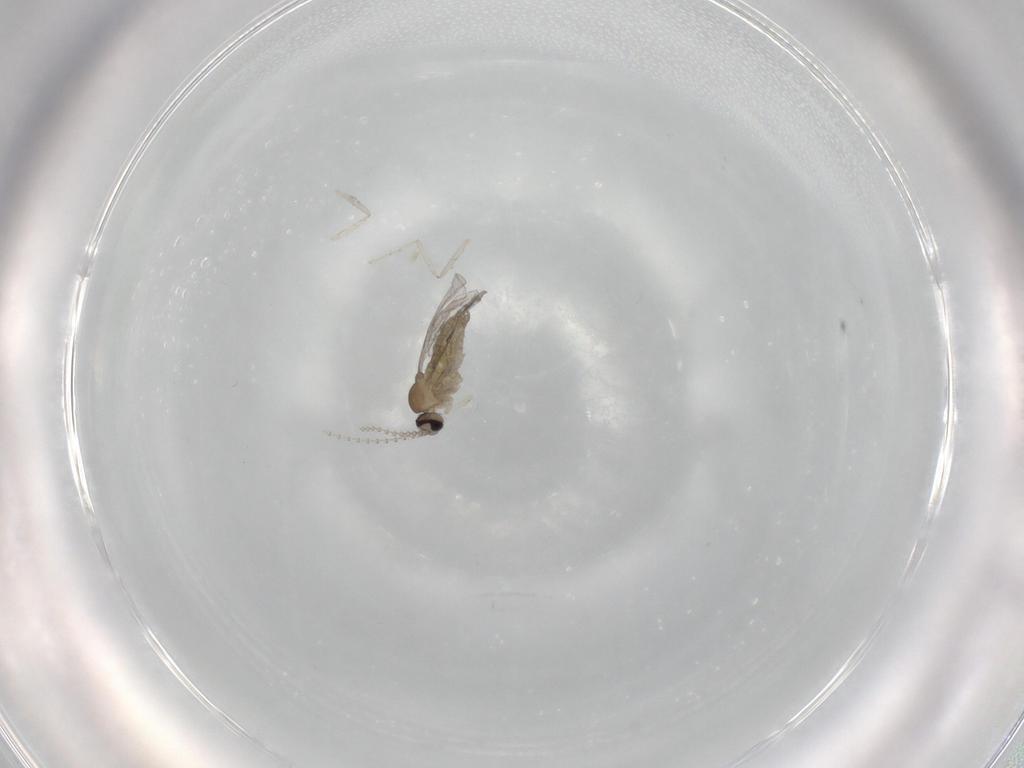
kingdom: Animalia
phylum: Arthropoda
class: Insecta
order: Diptera
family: Cecidomyiidae
